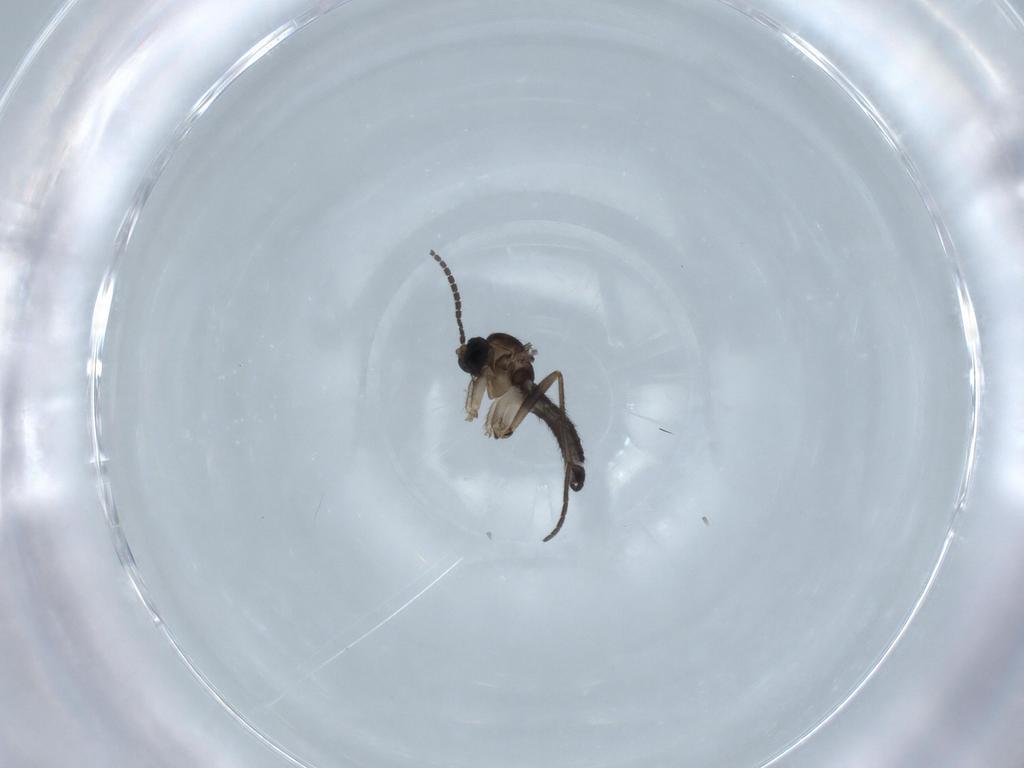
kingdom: Animalia
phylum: Arthropoda
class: Insecta
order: Diptera
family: Sciaridae
